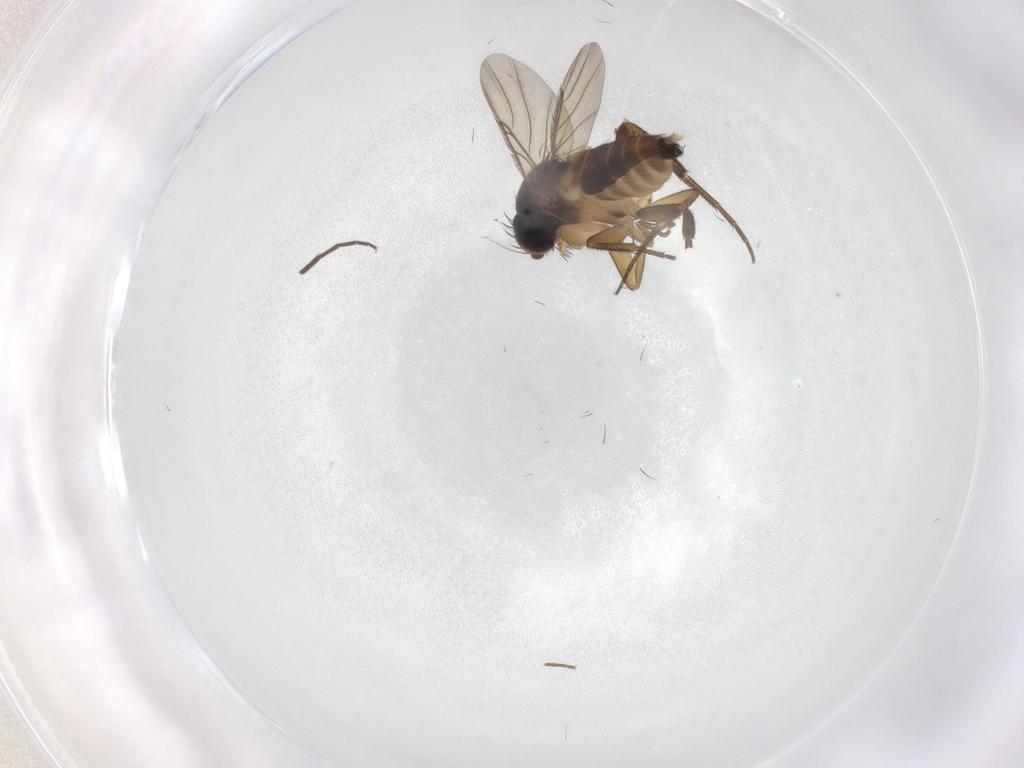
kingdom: Animalia
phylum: Arthropoda
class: Insecta
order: Diptera
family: Phoridae
